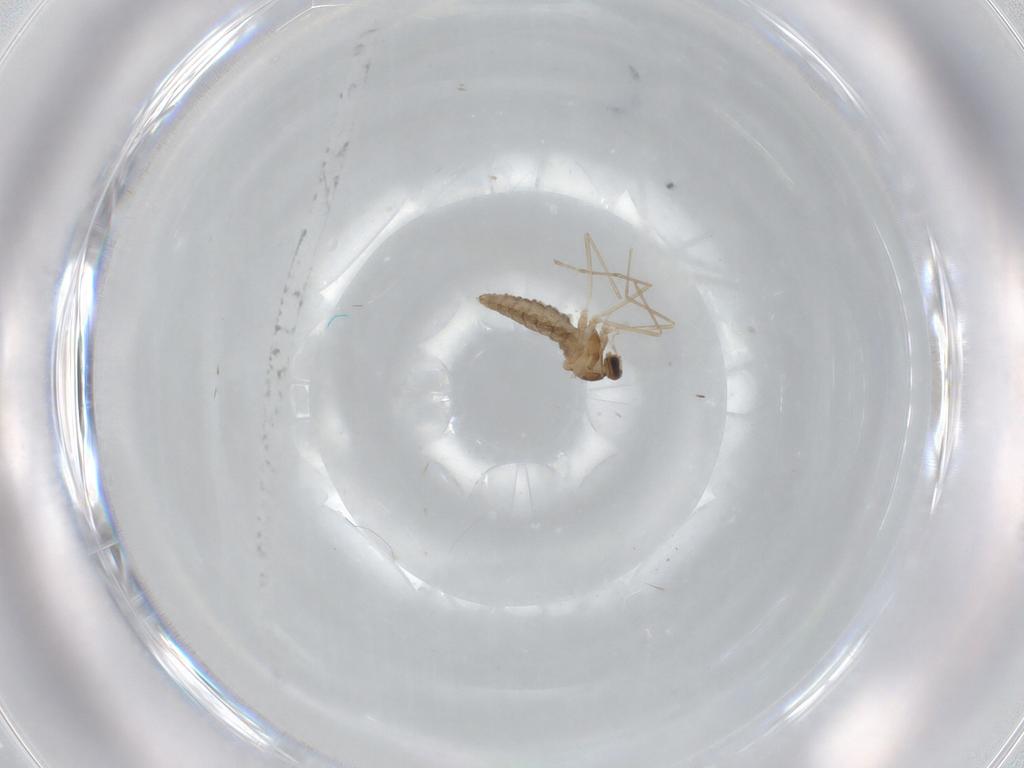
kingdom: Animalia
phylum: Arthropoda
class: Insecta
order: Diptera
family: Cecidomyiidae
